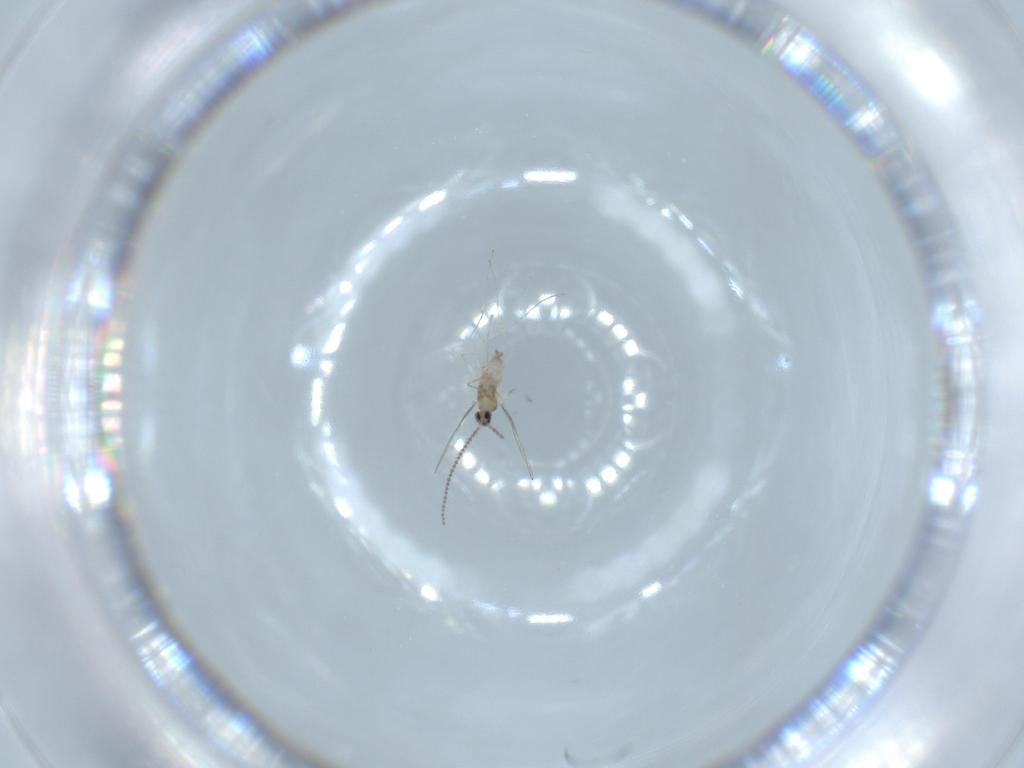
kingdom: Animalia
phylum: Arthropoda
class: Insecta
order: Diptera
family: Cecidomyiidae
